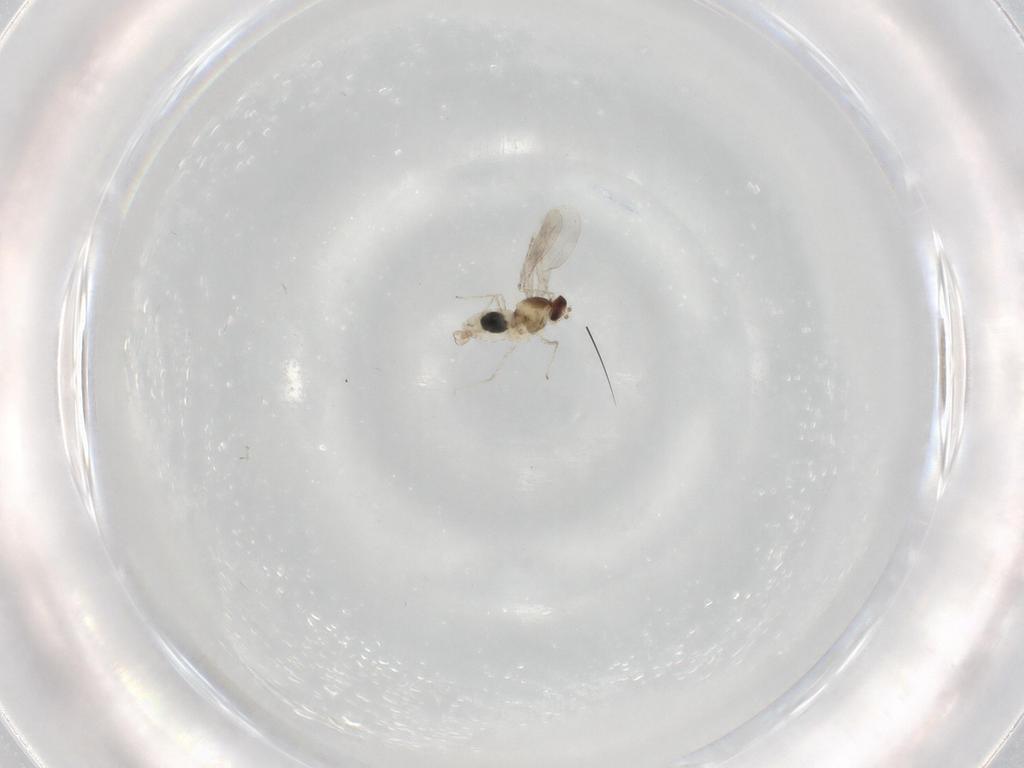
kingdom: Animalia
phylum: Arthropoda
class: Insecta
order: Diptera
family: Cecidomyiidae
